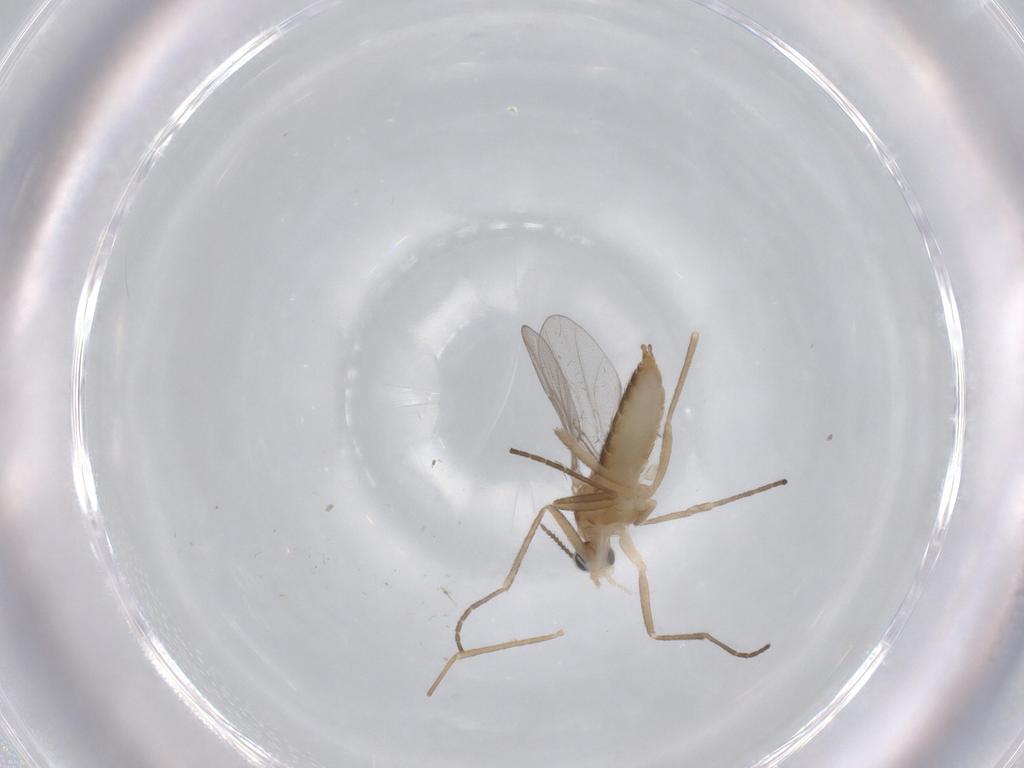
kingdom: Animalia
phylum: Arthropoda
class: Insecta
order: Diptera
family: Cecidomyiidae
